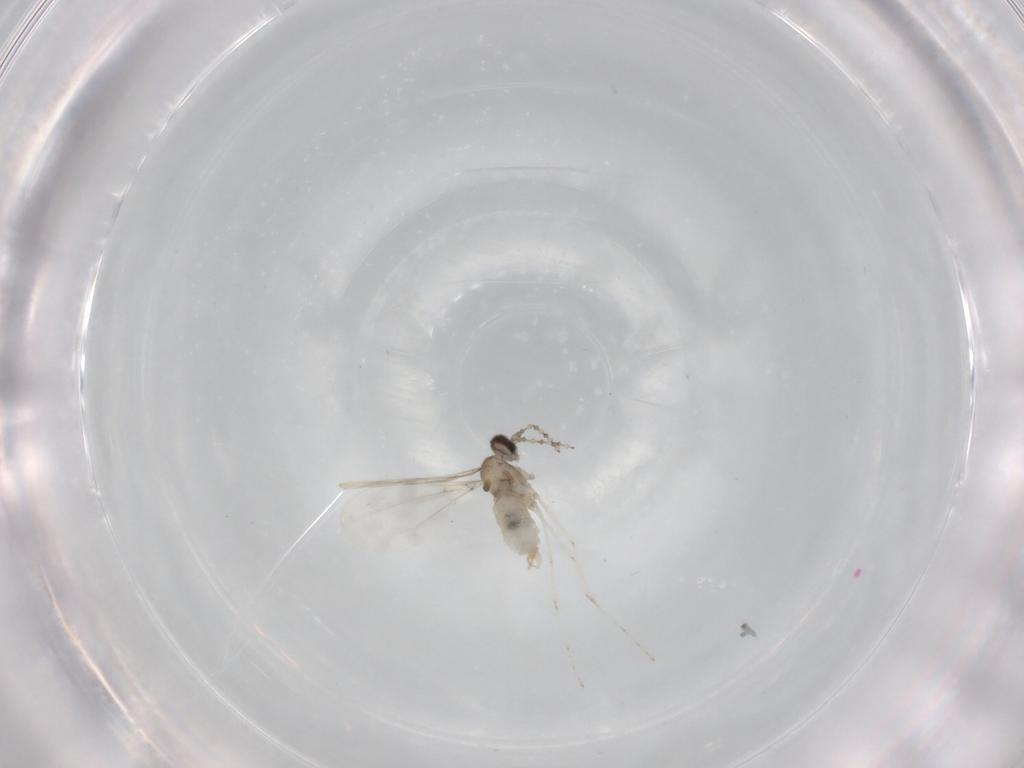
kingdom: Animalia
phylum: Arthropoda
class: Insecta
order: Diptera
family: Cecidomyiidae
